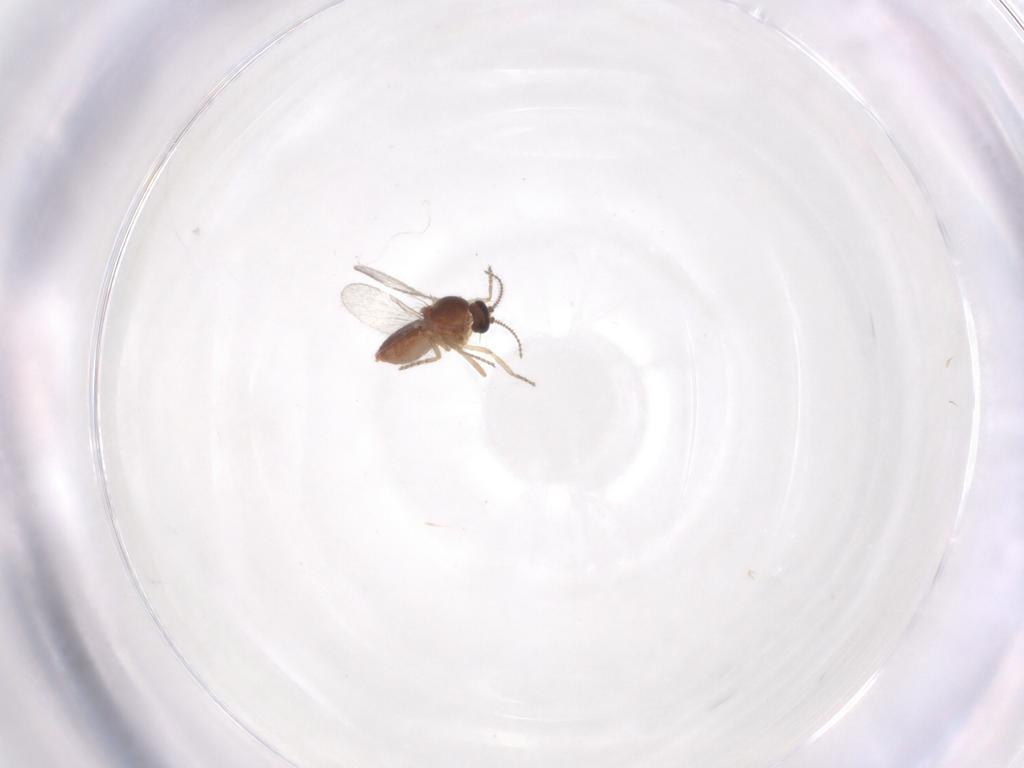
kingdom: Animalia
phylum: Arthropoda
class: Insecta
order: Diptera
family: Ceratopogonidae
